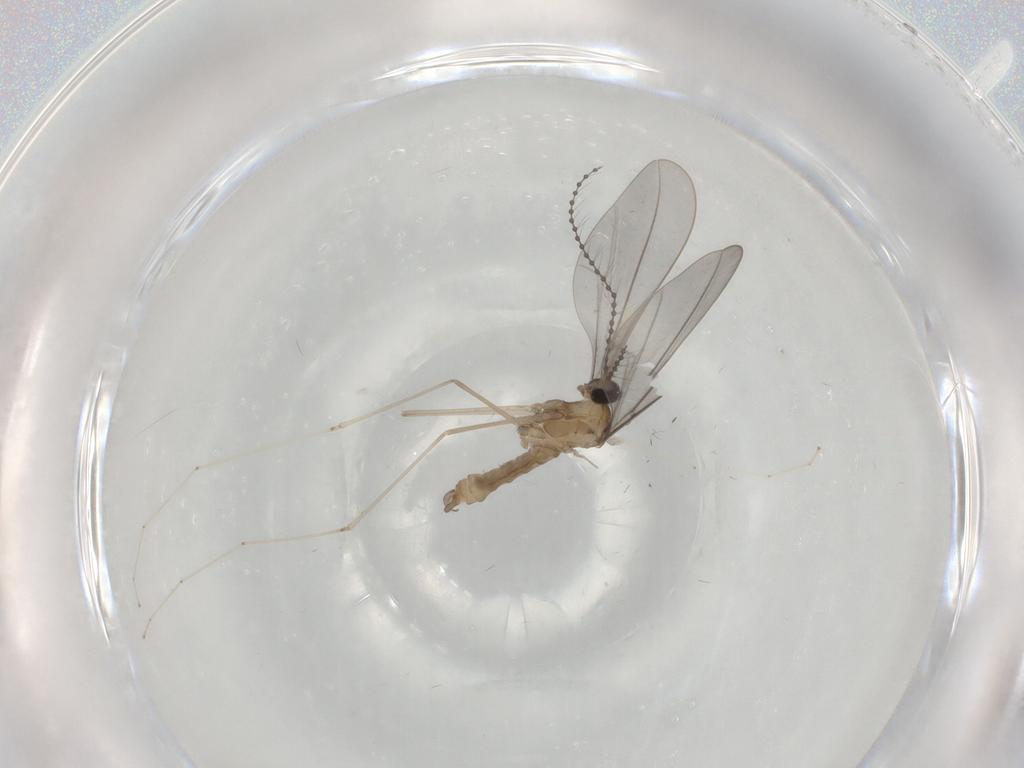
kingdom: Animalia
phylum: Arthropoda
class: Insecta
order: Diptera
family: Empididae
